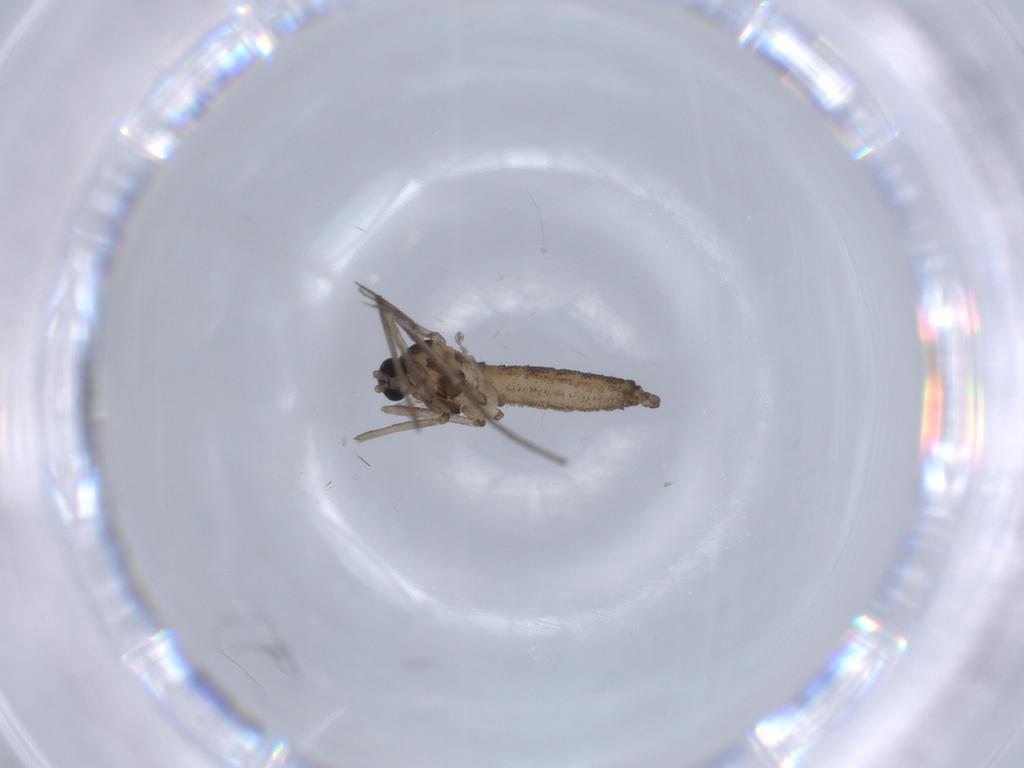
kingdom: Animalia
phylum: Arthropoda
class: Insecta
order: Diptera
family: Cecidomyiidae
